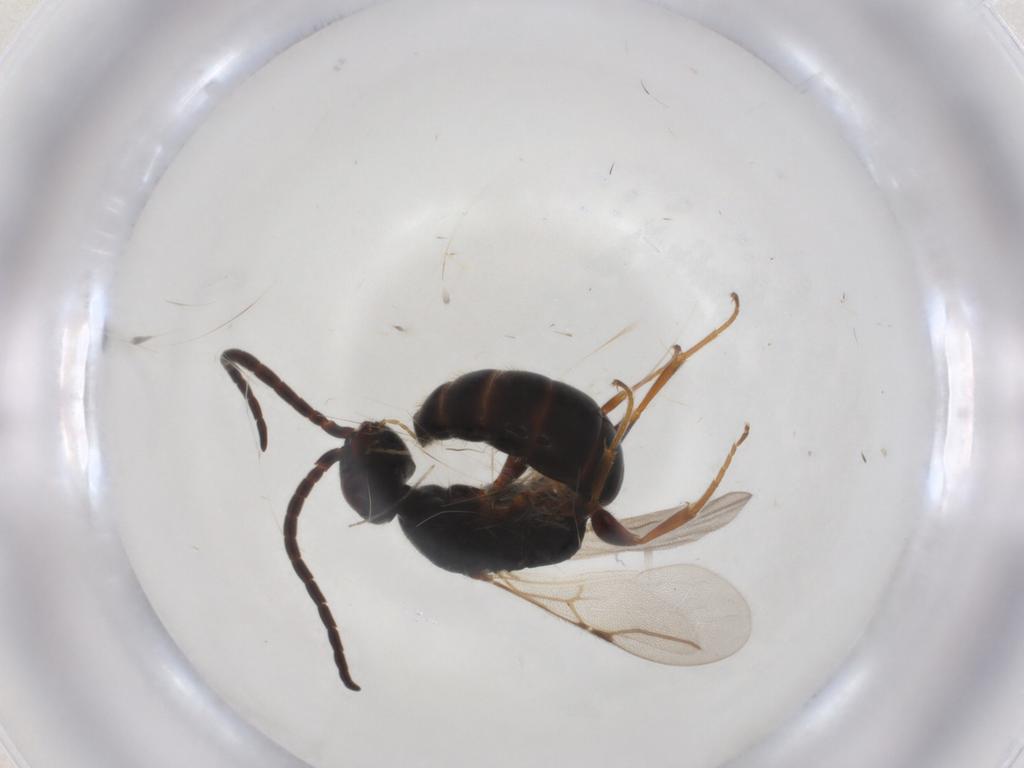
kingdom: Animalia
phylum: Arthropoda
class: Insecta
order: Hymenoptera
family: Bethylidae
